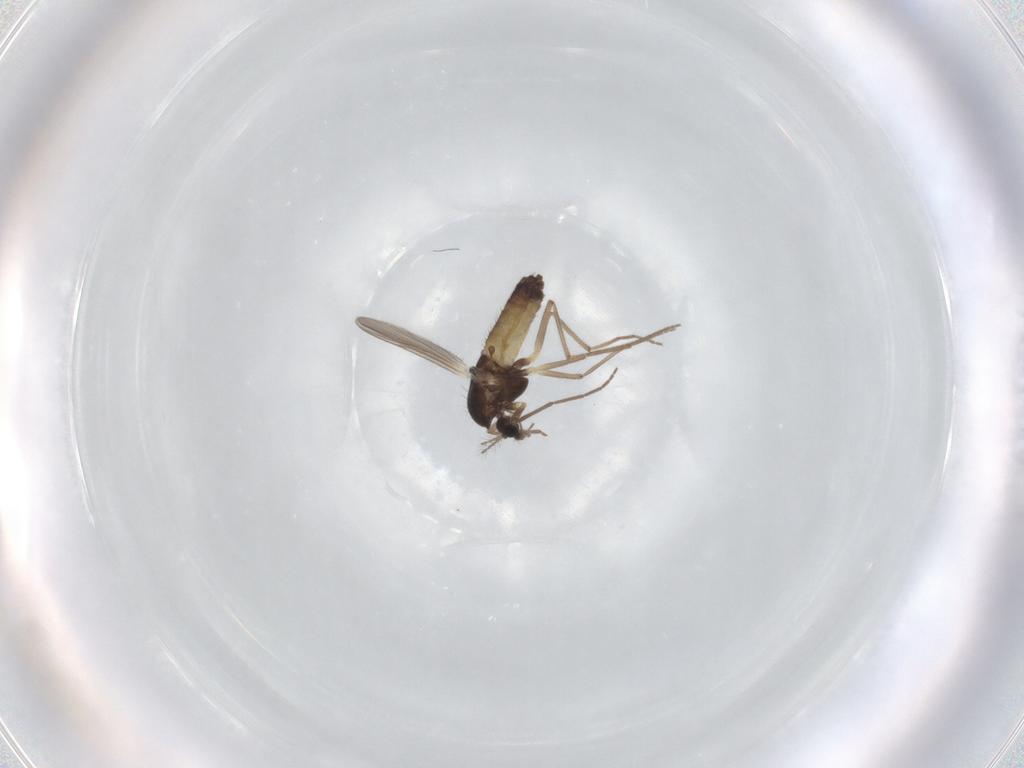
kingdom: Animalia
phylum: Arthropoda
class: Insecta
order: Diptera
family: Chironomidae
